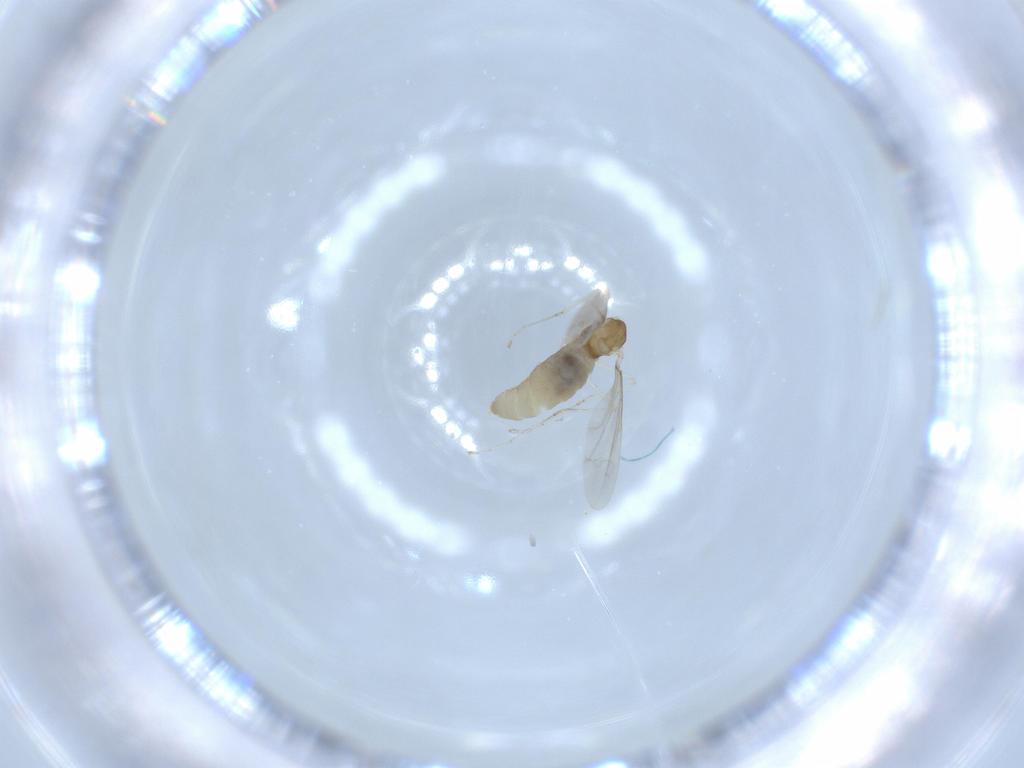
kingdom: Animalia
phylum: Arthropoda
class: Insecta
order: Diptera
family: Cecidomyiidae
